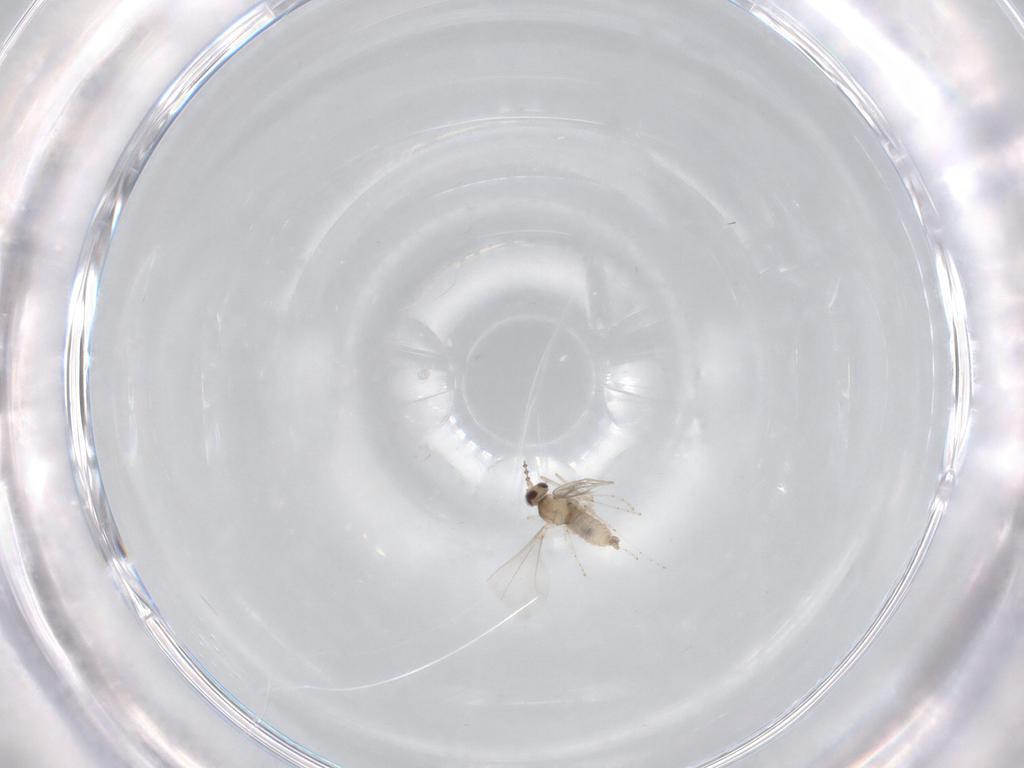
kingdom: Animalia
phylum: Arthropoda
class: Insecta
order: Diptera
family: Cecidomyiidae
